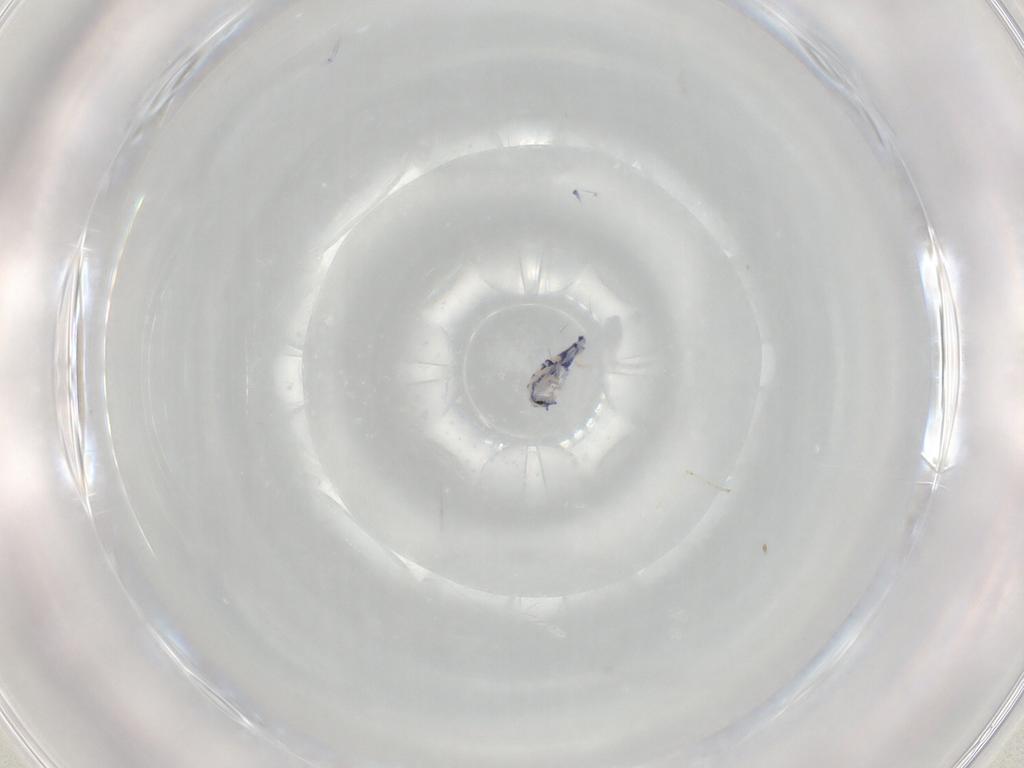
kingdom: Animalia
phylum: Arthropoda
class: Collembola
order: Entomobryomorpha
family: Entomobryidae
